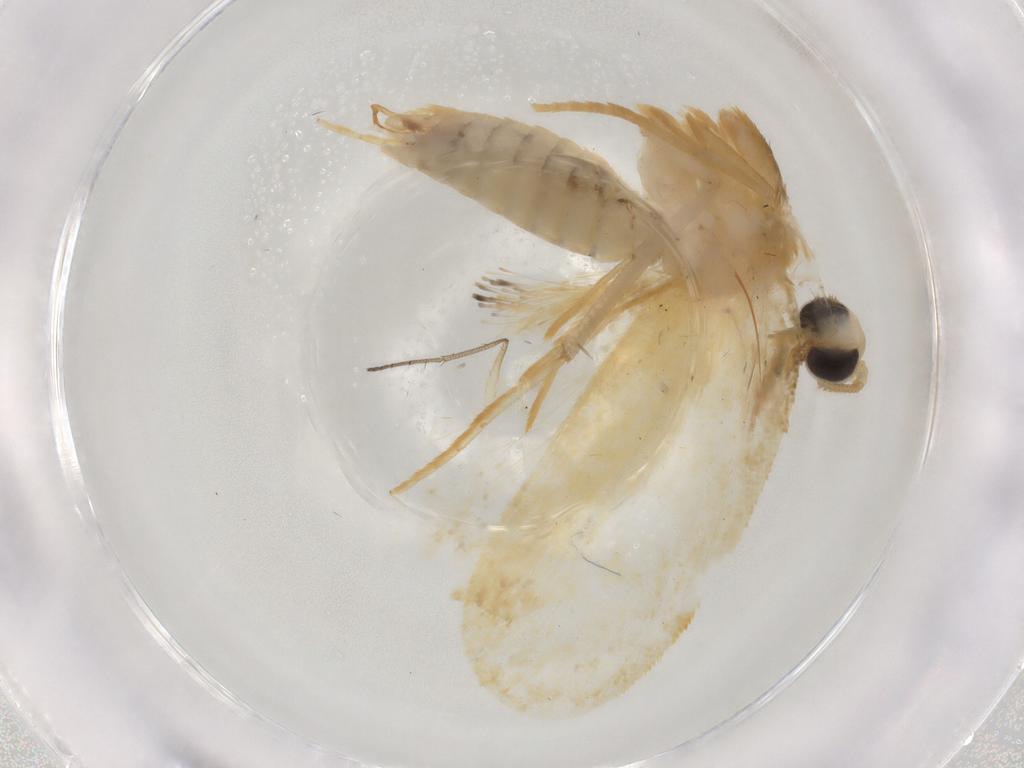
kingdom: Animalia
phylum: Arthropoda
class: Insecta
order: Lepidoptera
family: Psychidae
